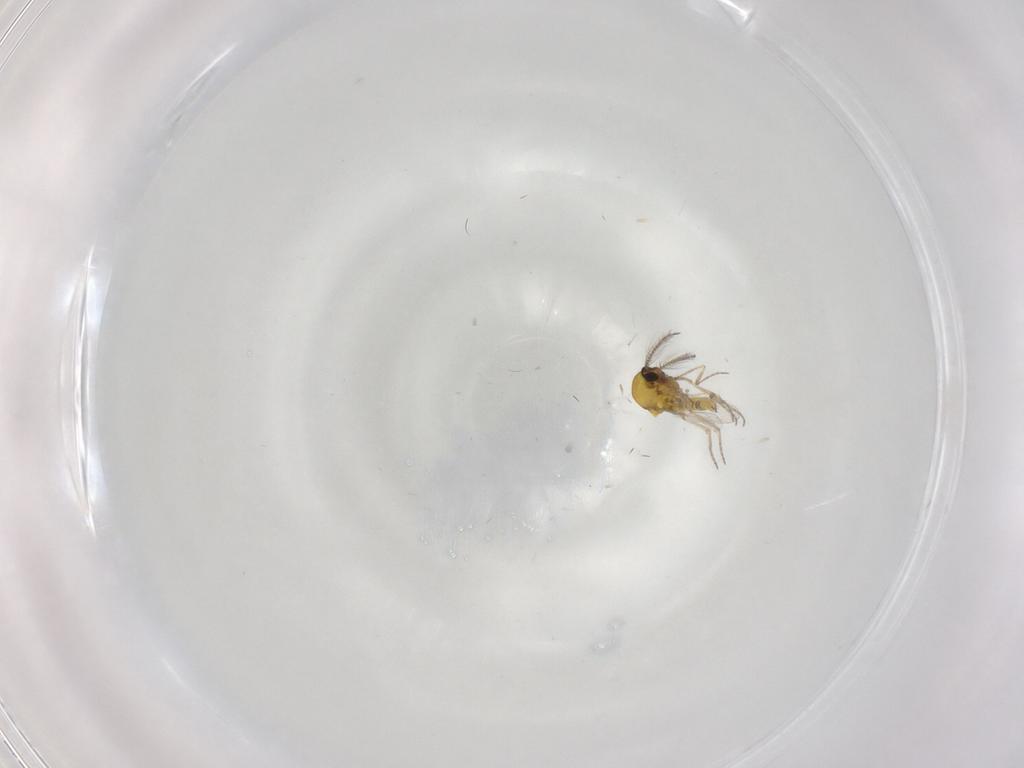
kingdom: Animalia
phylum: Arthropoda
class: Insecta
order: Diptera
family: Ceratopogonidae
